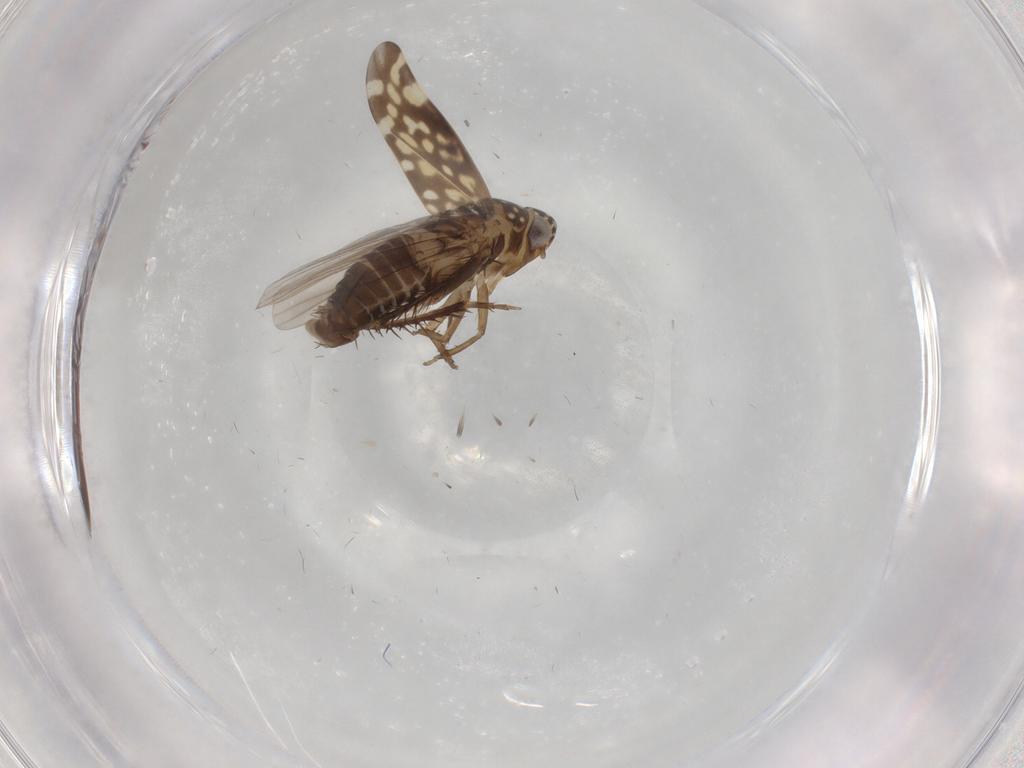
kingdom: Animalia
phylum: Arthropoda
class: Insecta
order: Hemiptera
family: Cicadellidae
